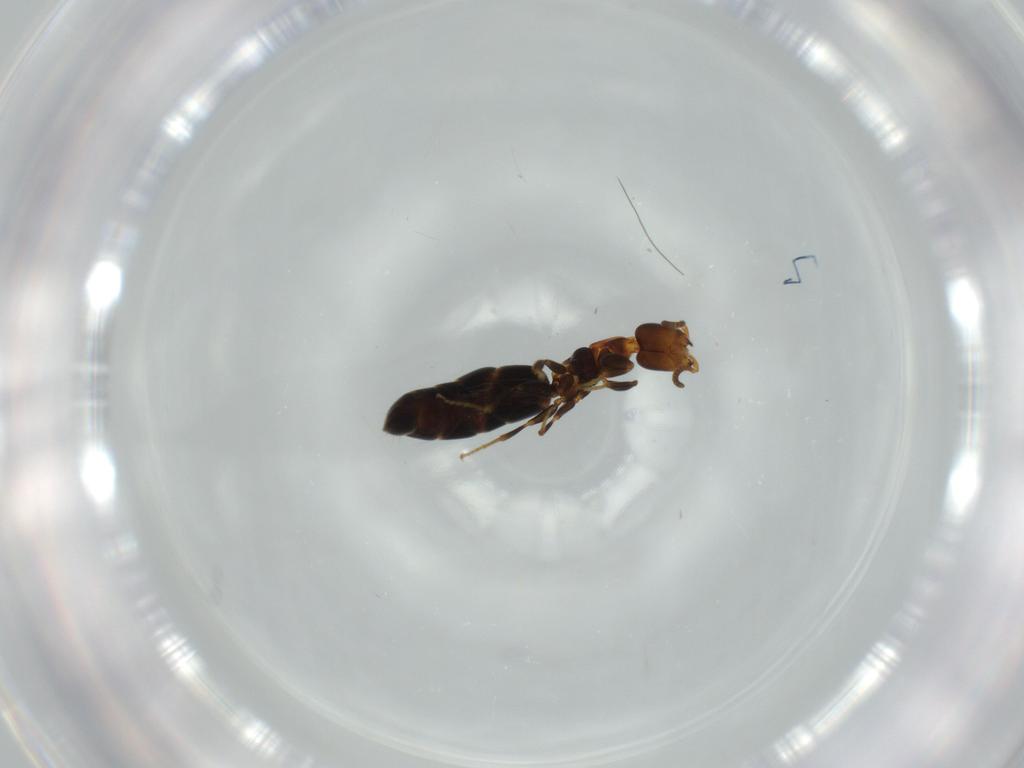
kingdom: Animalia
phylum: Arthropoda
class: Insecta
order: Hymenoptera
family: Bethylidae
